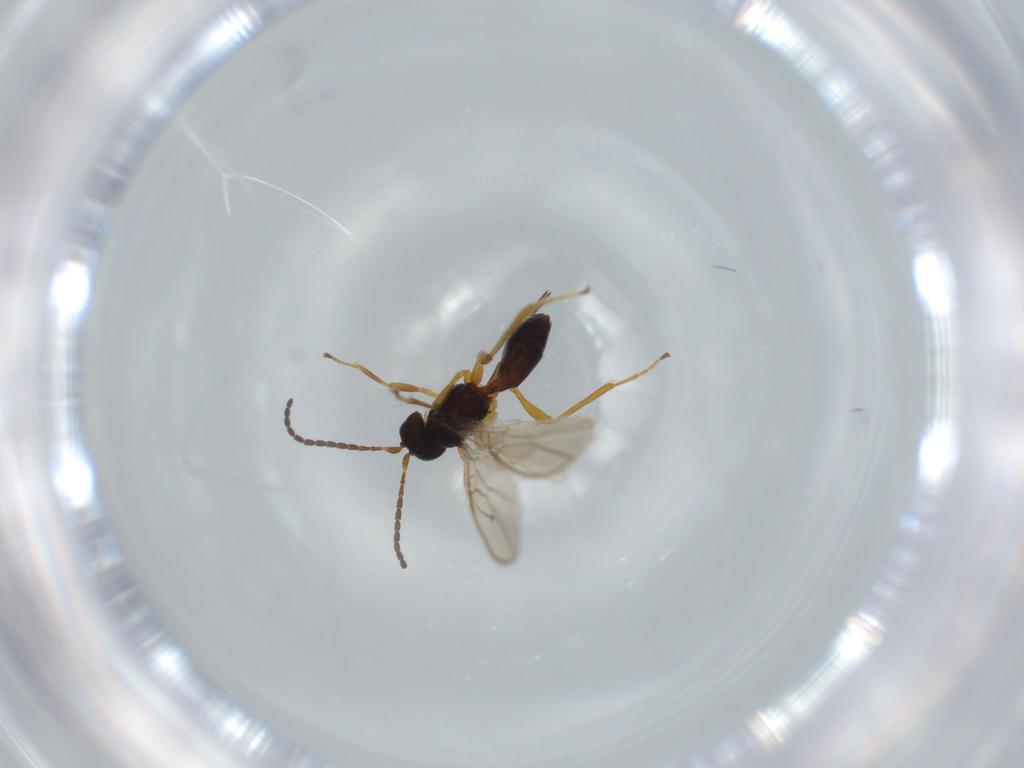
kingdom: Animalia
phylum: Arthropoda
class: Insecta
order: Hymenoptera
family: Braconidae
